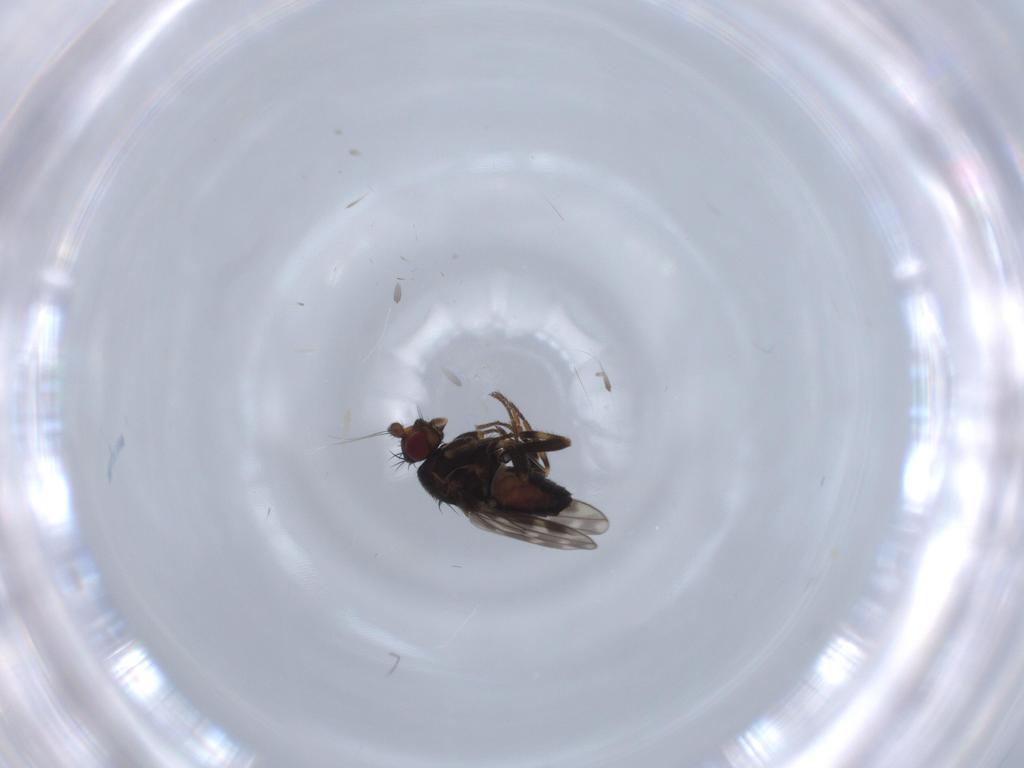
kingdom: Animalia
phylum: Arthropoda
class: Insecta
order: Diptera
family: Sphaeroceridae
